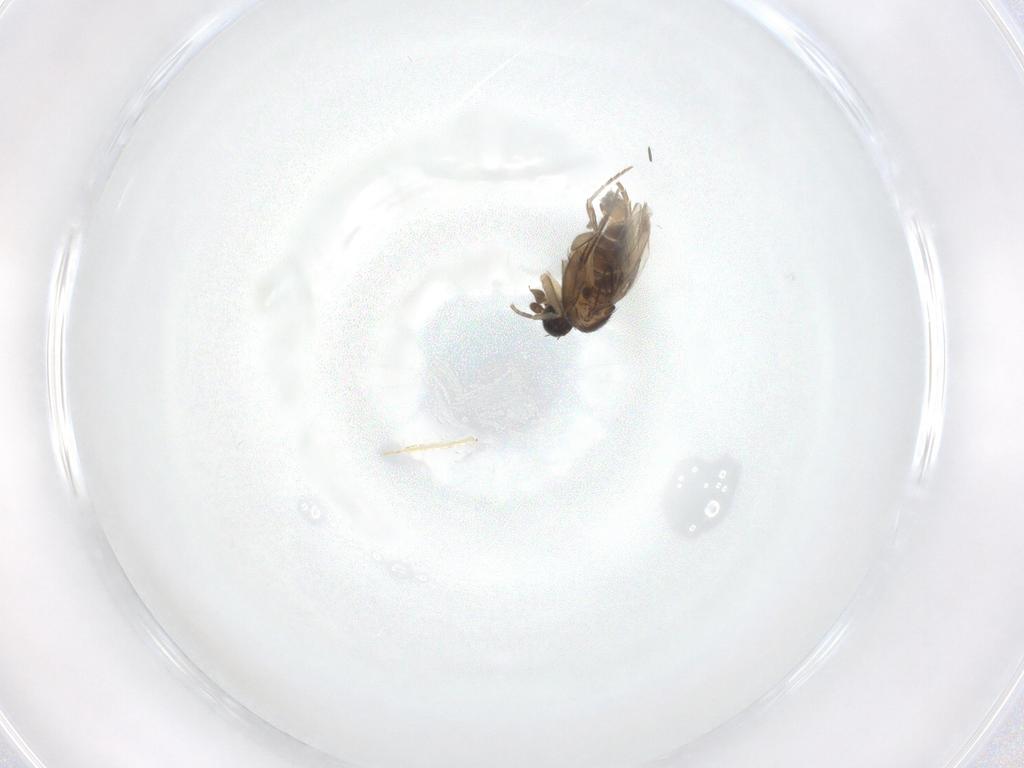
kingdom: Animalia
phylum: Arthropoda
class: Insecta
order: Diptera
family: Phoridae
